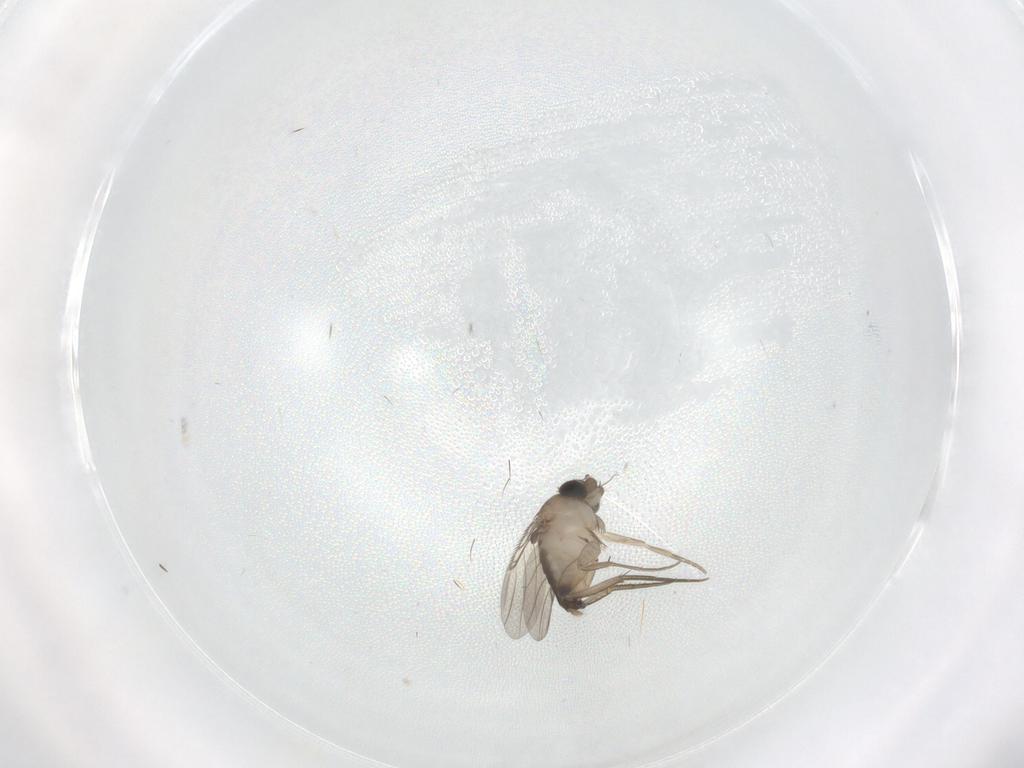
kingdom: Animalia
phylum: Arthropoda
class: Insecta
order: Diptera
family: Phoridae
